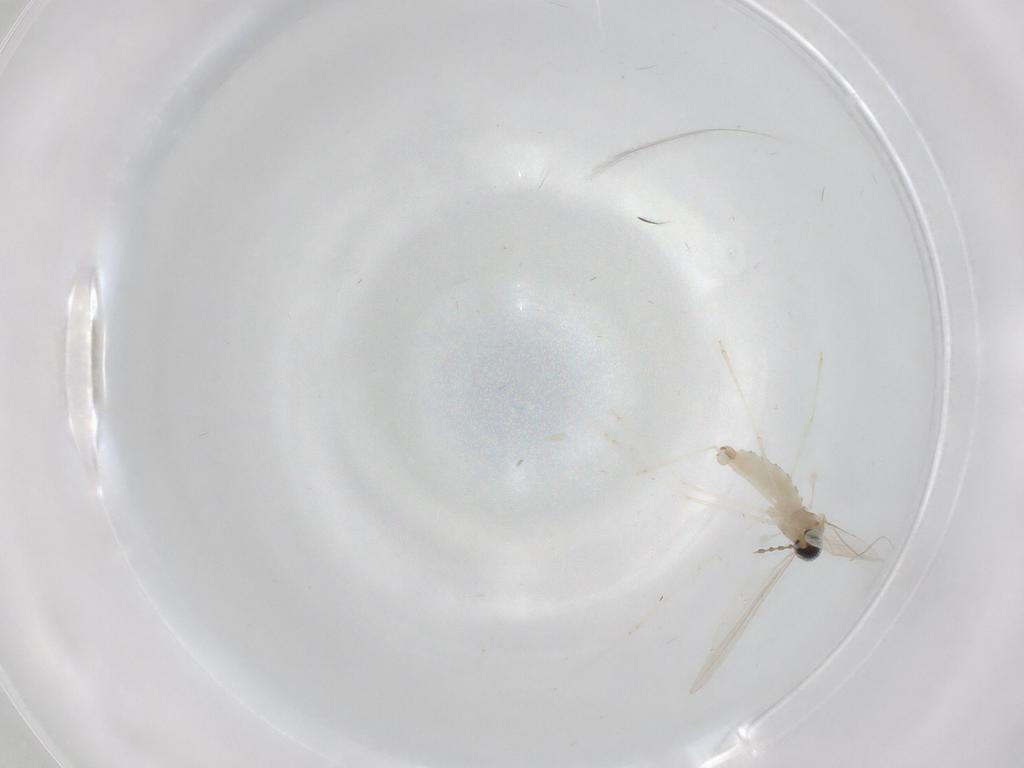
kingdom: Animalia
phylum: Arthropoda
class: Insecta
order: Diptera
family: Cecidomyiidae
